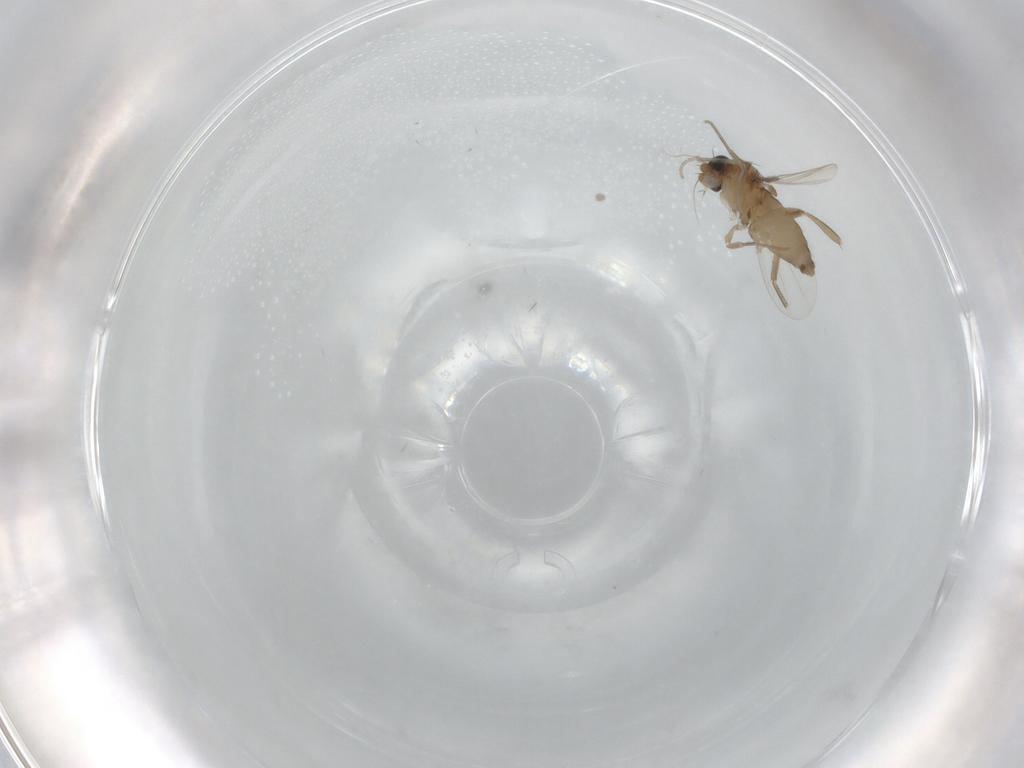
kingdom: Animalia
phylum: Arthropoda
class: Insecta
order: Diptera
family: Phoridae
